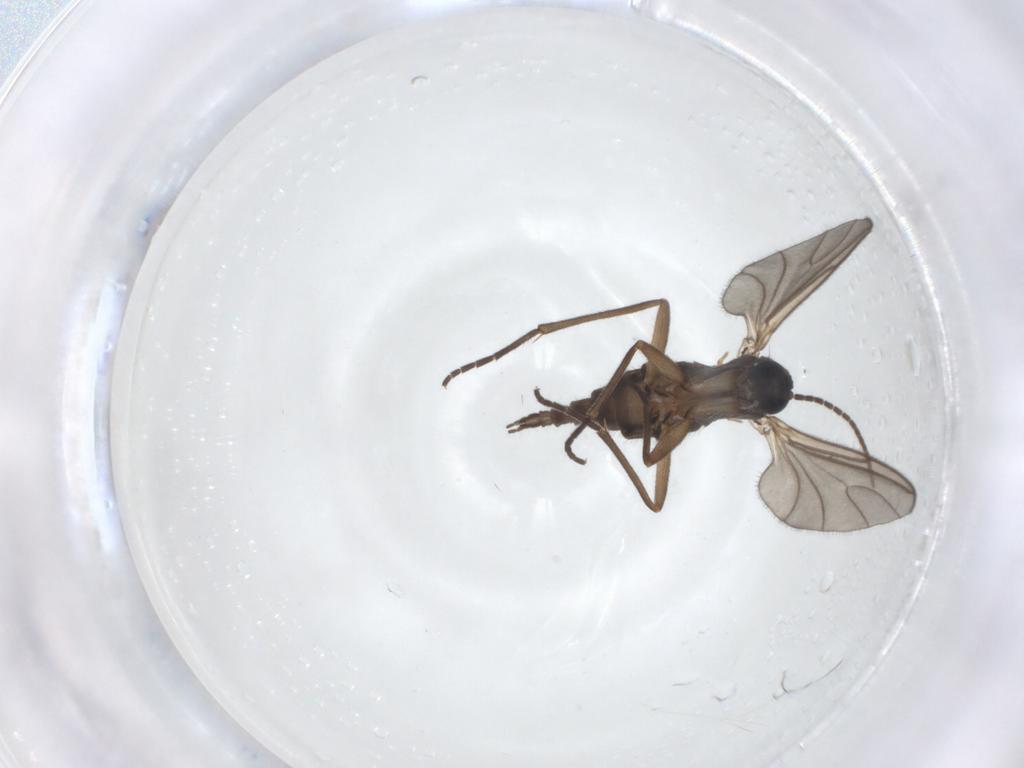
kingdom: Animalia
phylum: Arthropoda
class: Insecta
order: Diptera
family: Sciaridae
